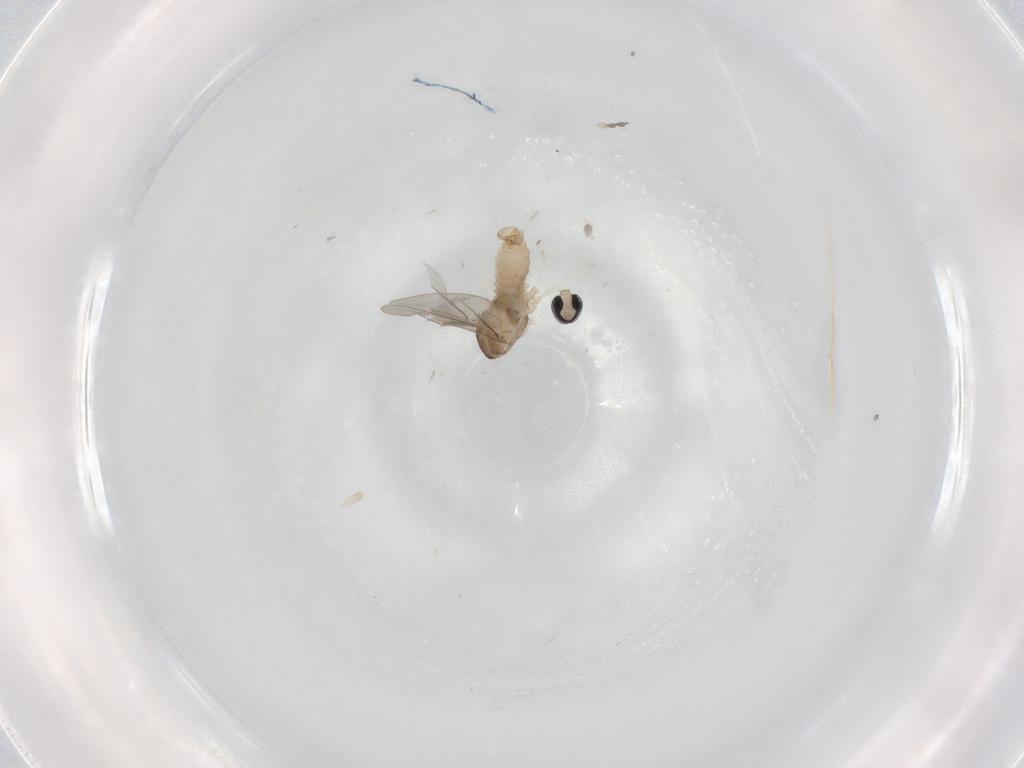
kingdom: Animalia
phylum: Arthropoda
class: Insecta
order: Diptera
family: Cecidomyiidae
